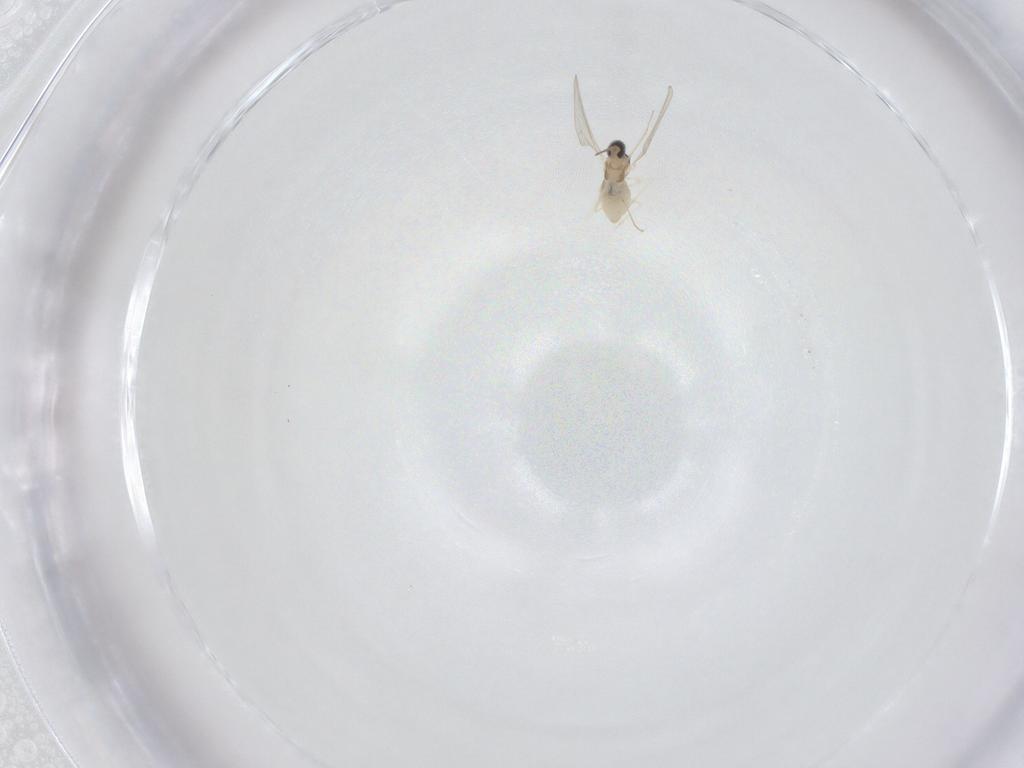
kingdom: Animalia
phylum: Arthropoda
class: Insecta
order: Diptera
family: Cecidomyiidae
